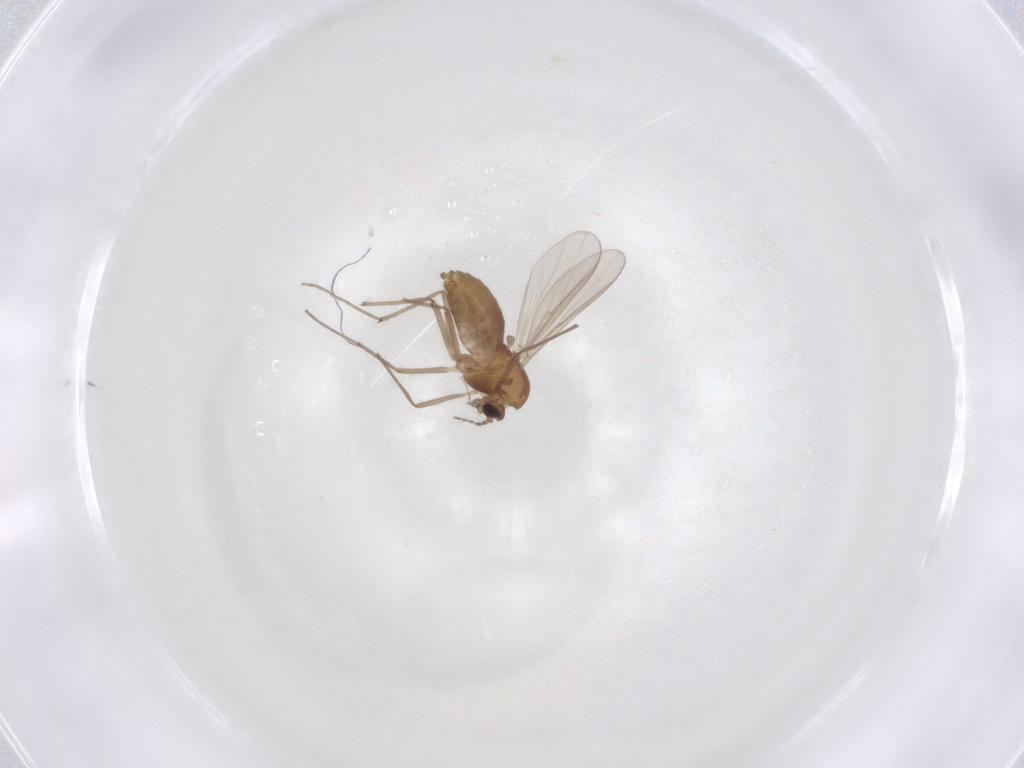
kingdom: Animalia
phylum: Arthropoda
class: Insecta
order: Diptera
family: Chironomidae
